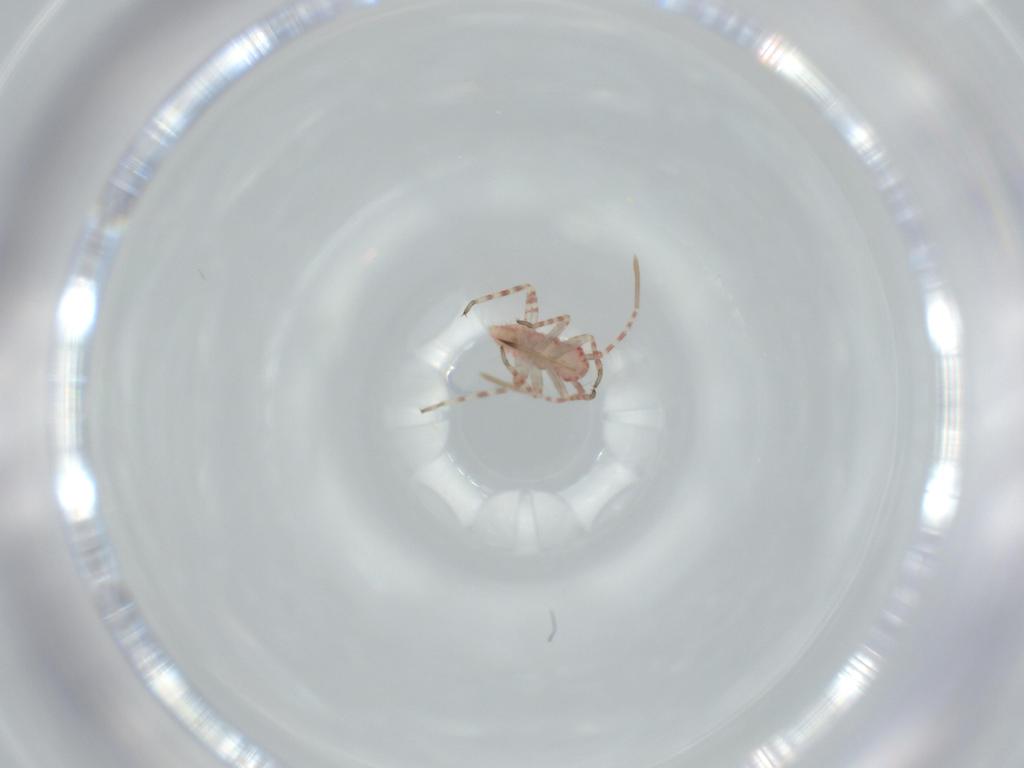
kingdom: Animalia
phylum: Arthropoda
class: Insecta
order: Hemiptera
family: Miridae
